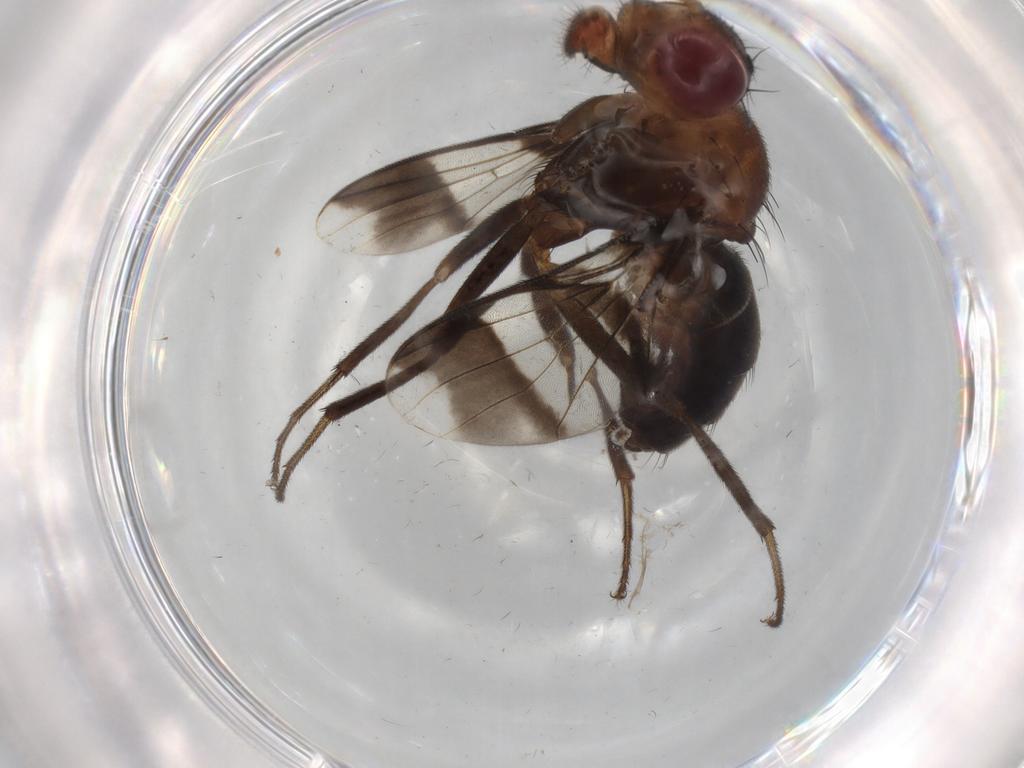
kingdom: Animalia
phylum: Arthropoda
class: Insecta
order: Diptera
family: Richardiidae
